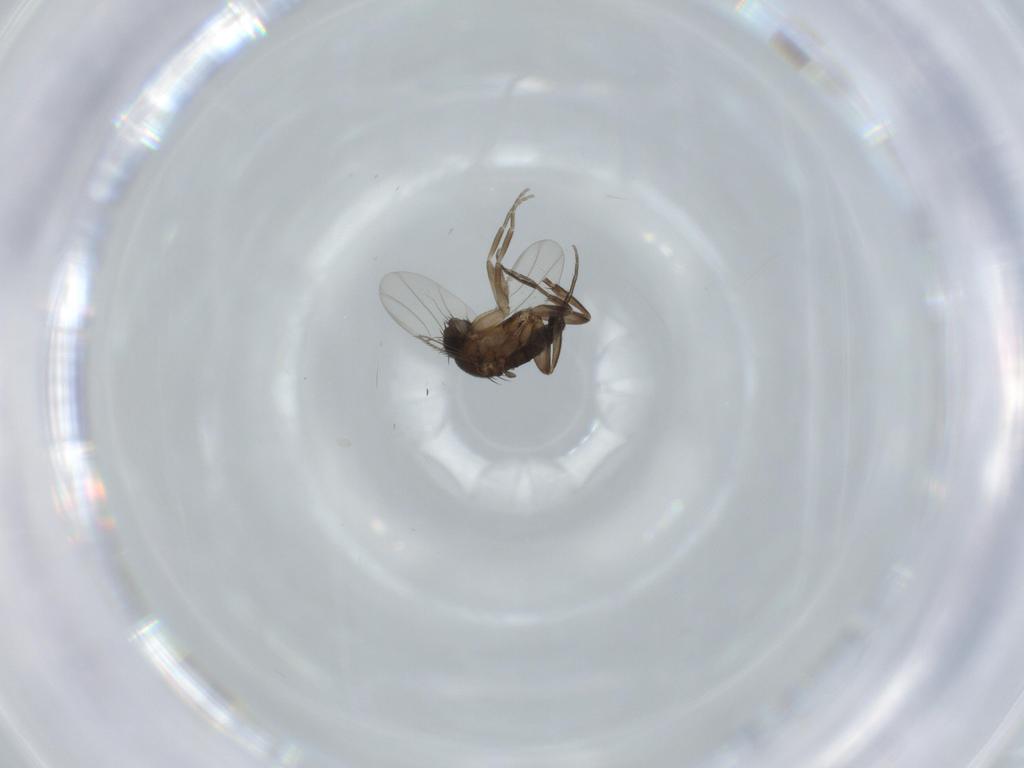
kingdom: Animalia
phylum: Arthropoda
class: Insecta
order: Diptera
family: Phoridae
